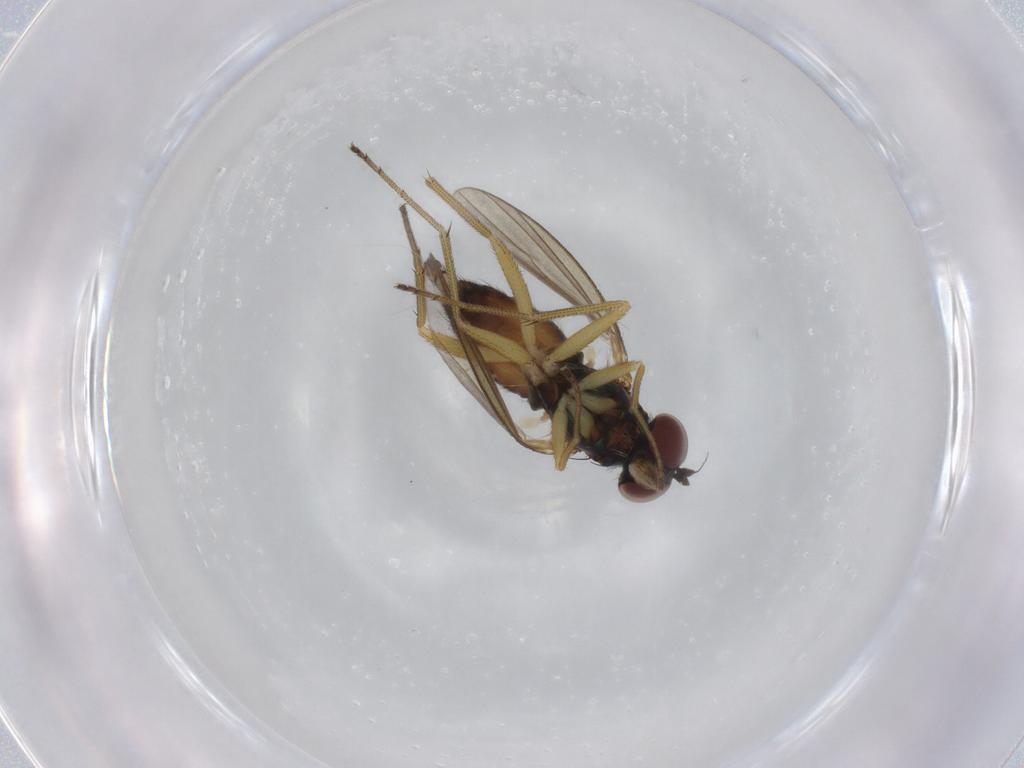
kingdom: Animalia
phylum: Arthropoda
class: Insecta
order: Diptera
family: Dolichopodidae
